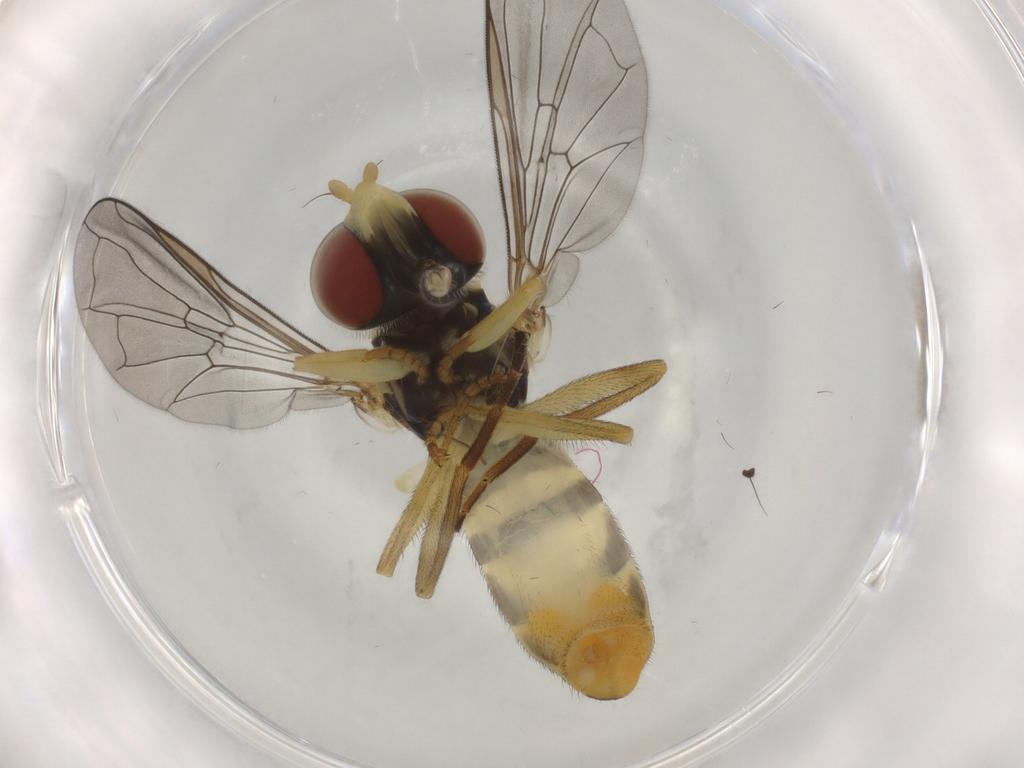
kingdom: Animalia
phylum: Arthropoda
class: Insecta
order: Diptera
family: Syrphidae
